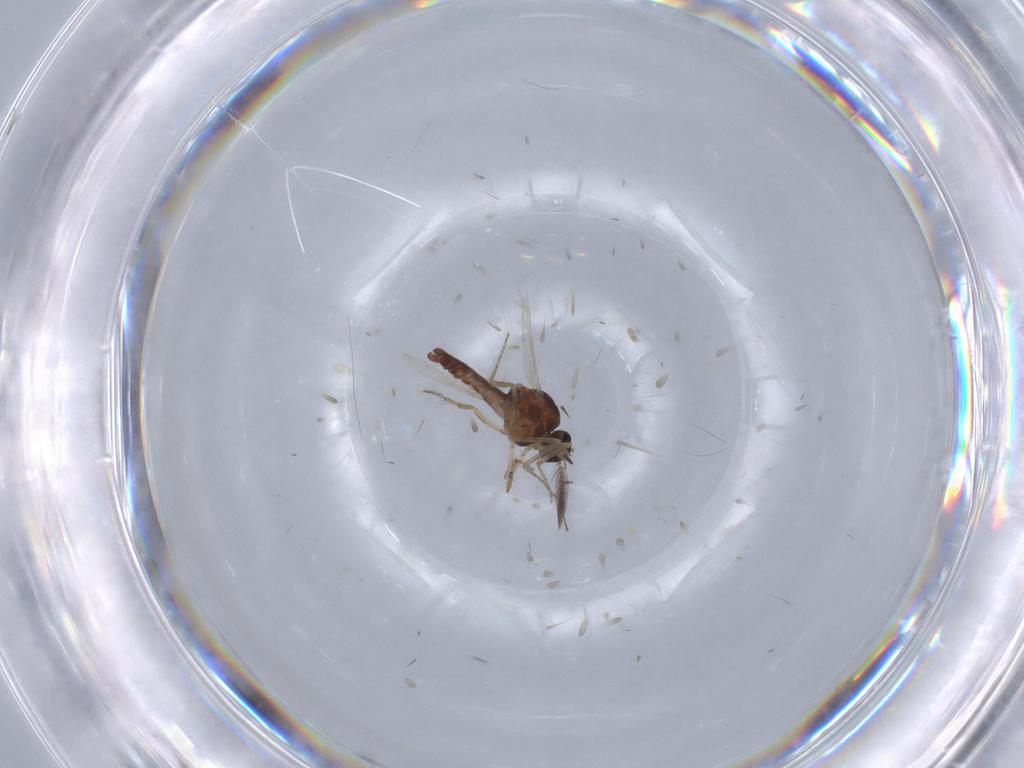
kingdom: Animalia
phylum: Arthropoda
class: Insecta
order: Diptera
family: Ceratopogonidae
